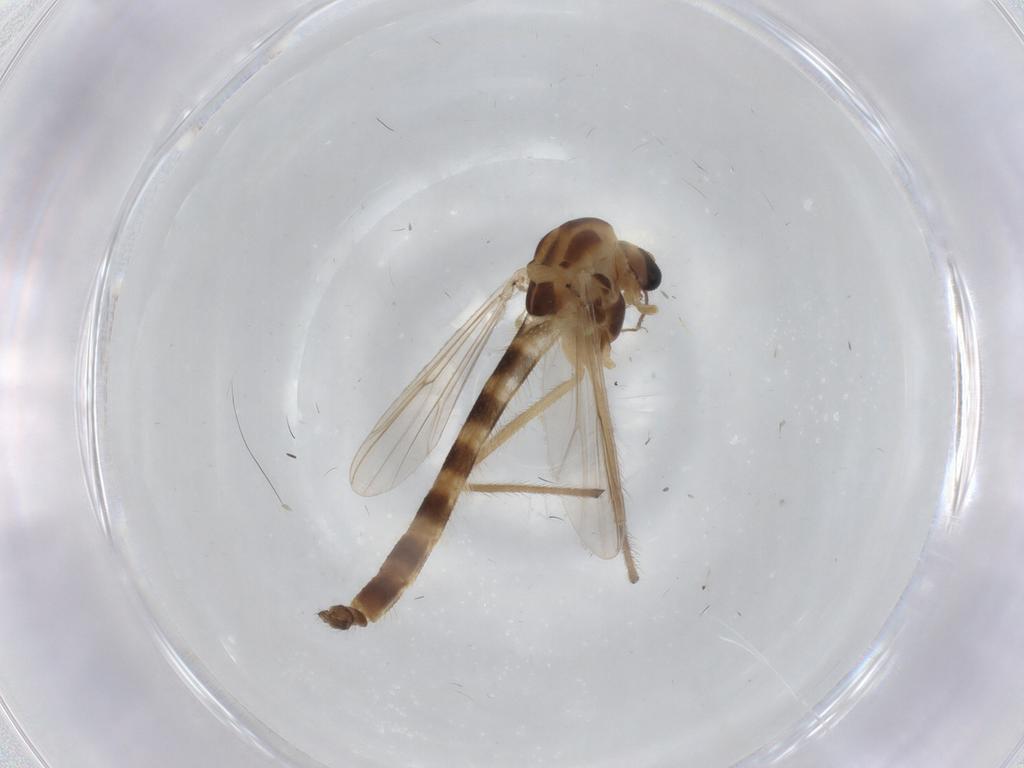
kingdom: Animalia
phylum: Arthropoda
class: Insecta
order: Diptera
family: Chironomidae
